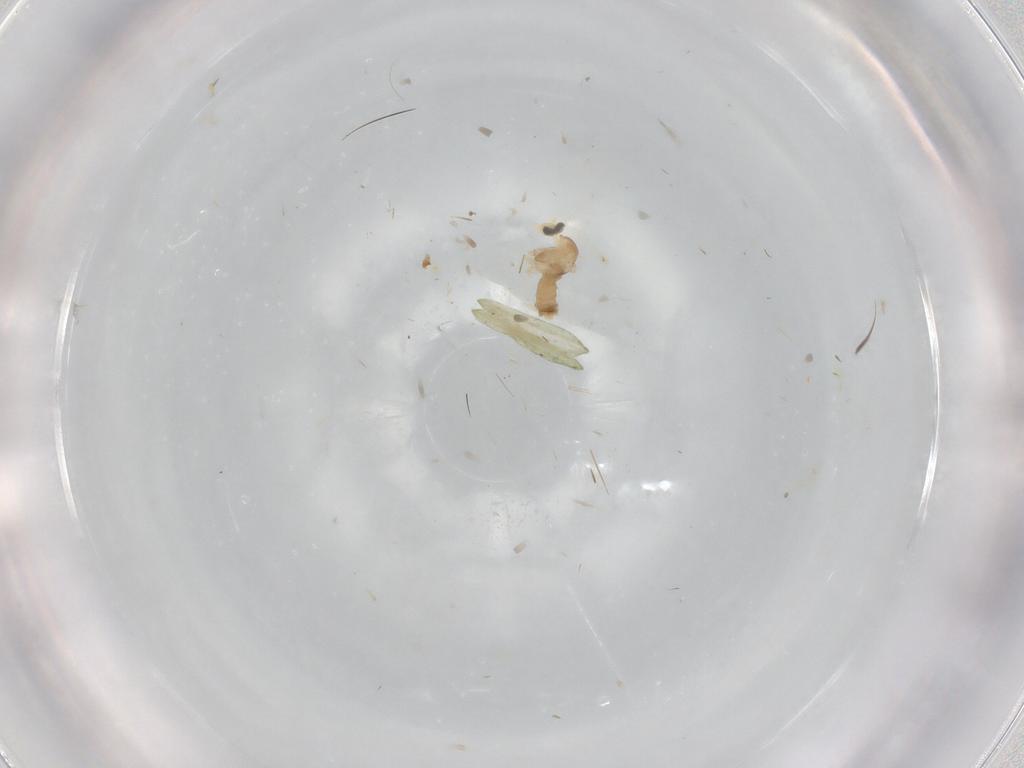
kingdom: Animalia
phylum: Arthropoda
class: Insecta
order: Diptera
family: Cecidomyiidae
